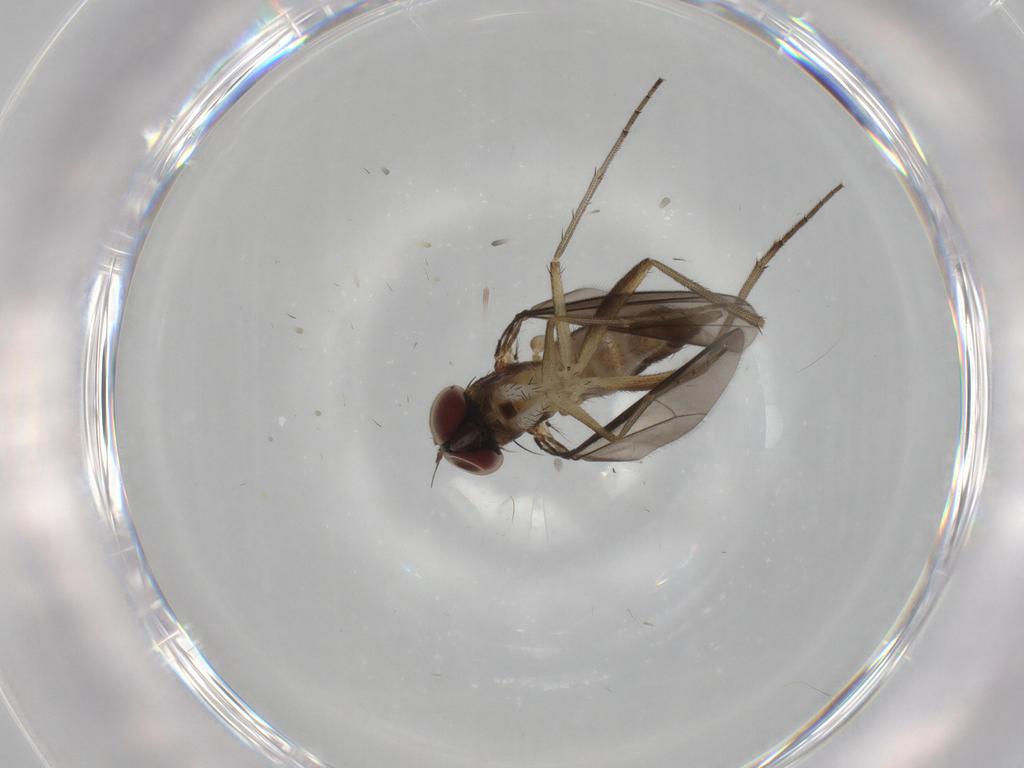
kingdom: Animalia
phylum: Arthropoda
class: Insecta
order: Diptera
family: Dolichopodidae
